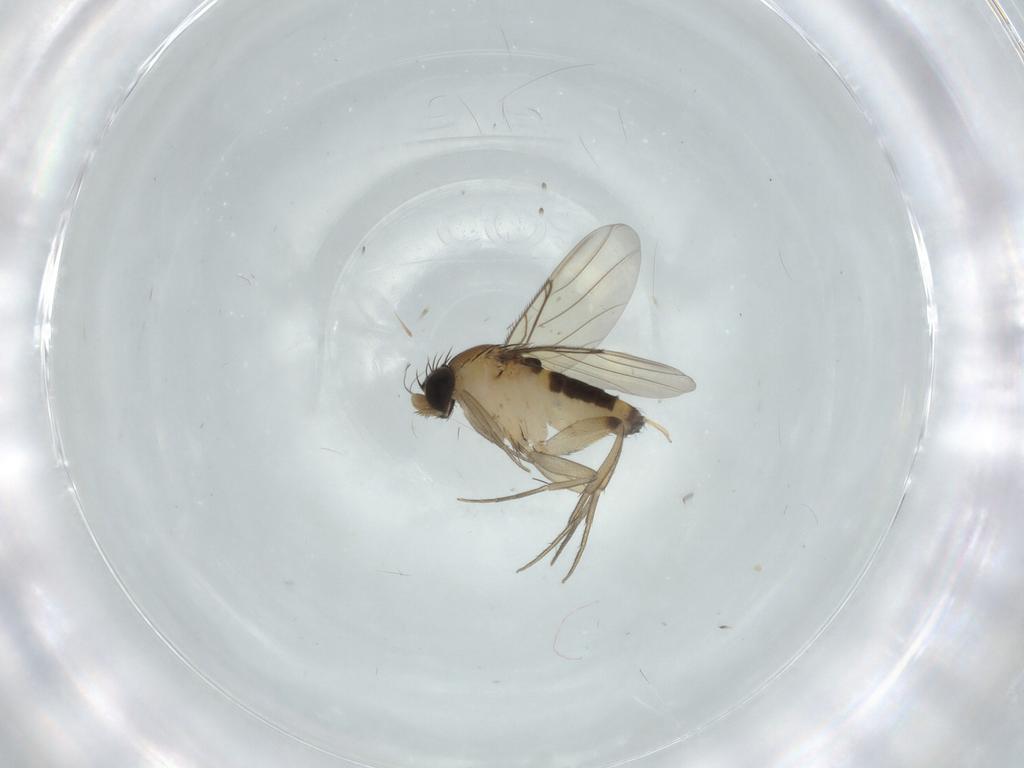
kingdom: Animalia
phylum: Arthropoda
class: Insecta
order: Diptera
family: Phoridae
